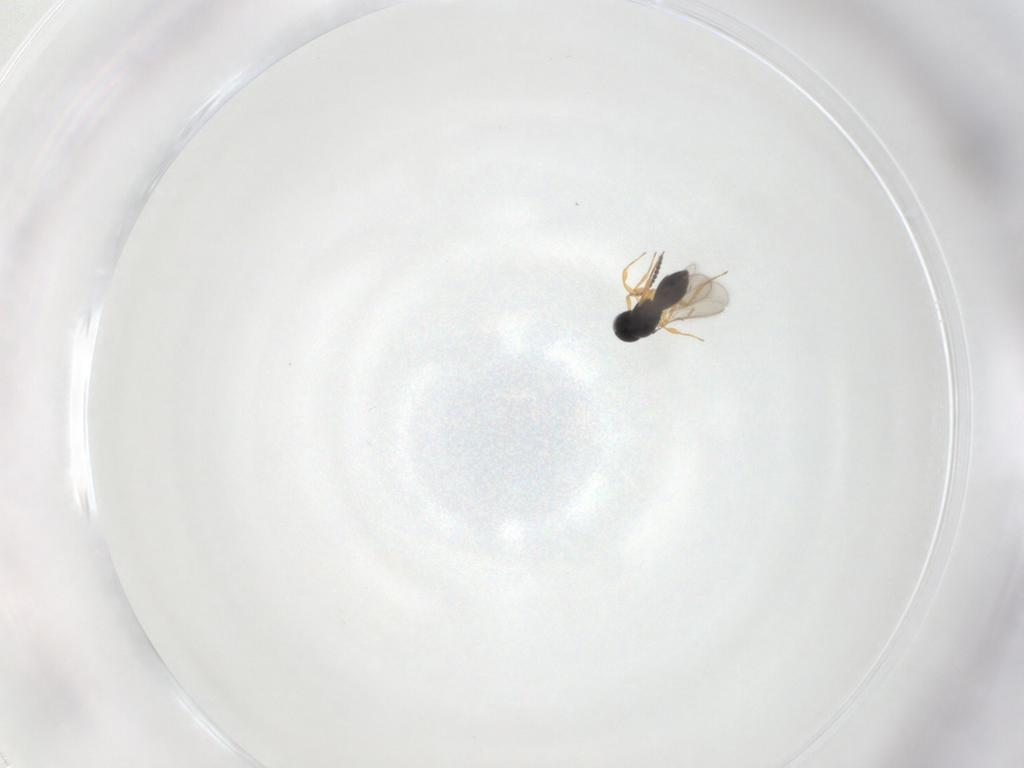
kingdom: Animalia
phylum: Arthropoda
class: Insecta
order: Hymenoptera
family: Scelionidae
